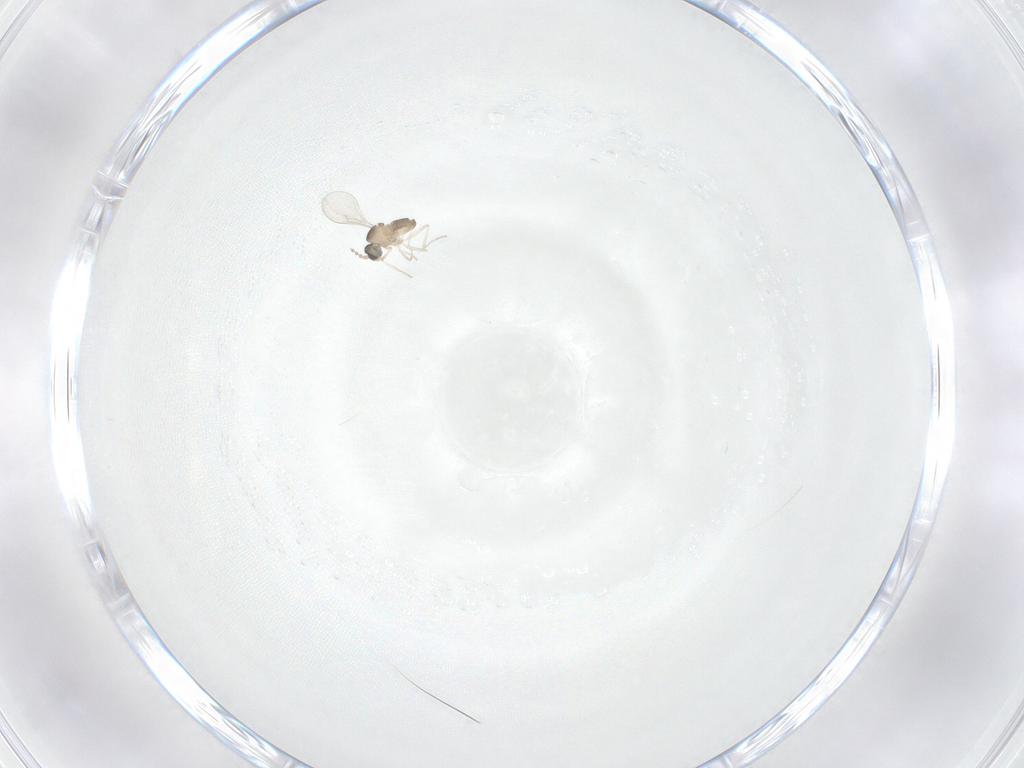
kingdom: Animalia
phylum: Arthropoda
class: Insecta
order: Diptera
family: Cecidomyiidae
